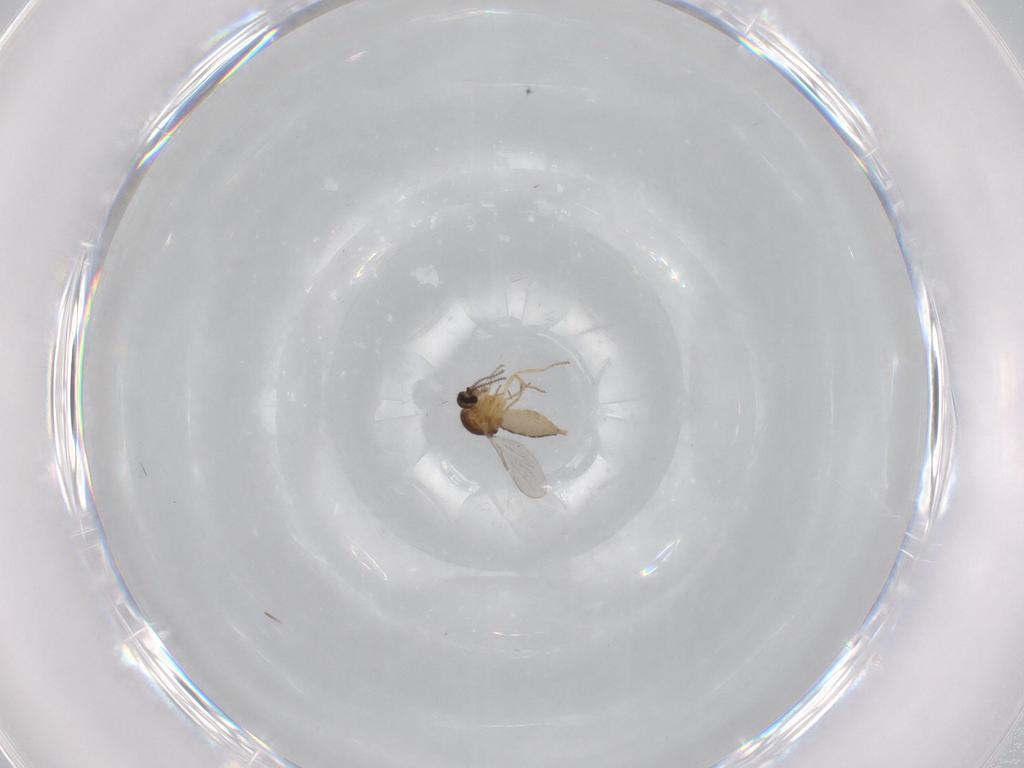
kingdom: Animalia
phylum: Arthropoda
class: Insecta
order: Diptera
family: Ceratopogonidae
